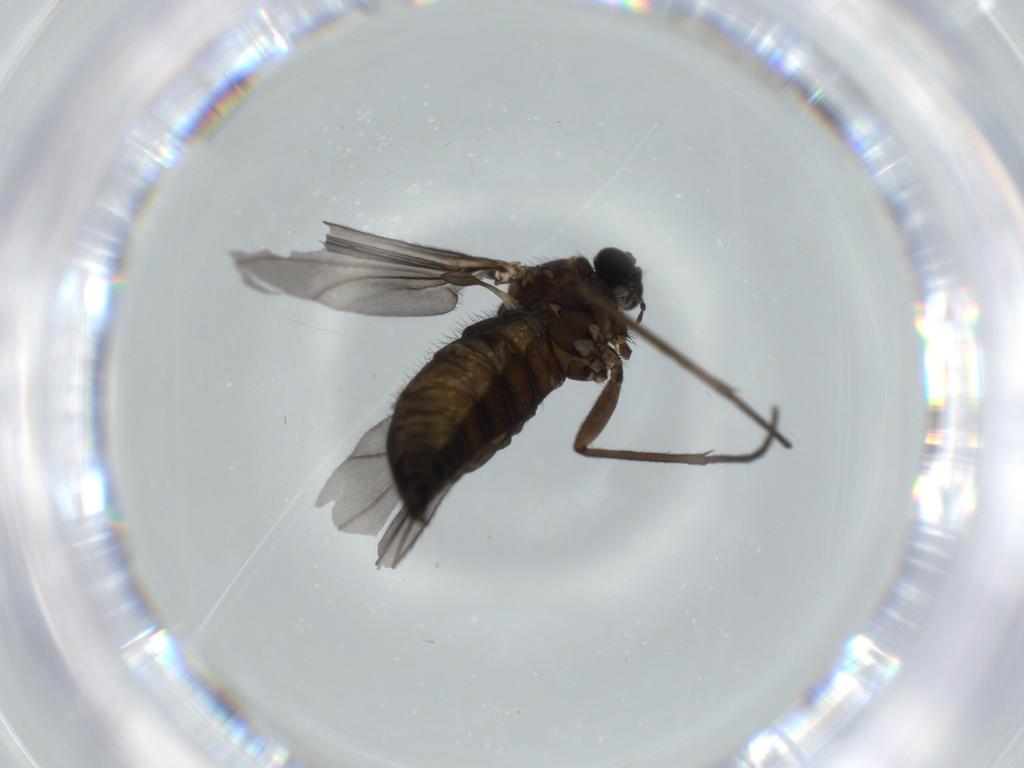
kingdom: Animalia
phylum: Arthropoda
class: Insecta
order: Diptera
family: Sciaridae
